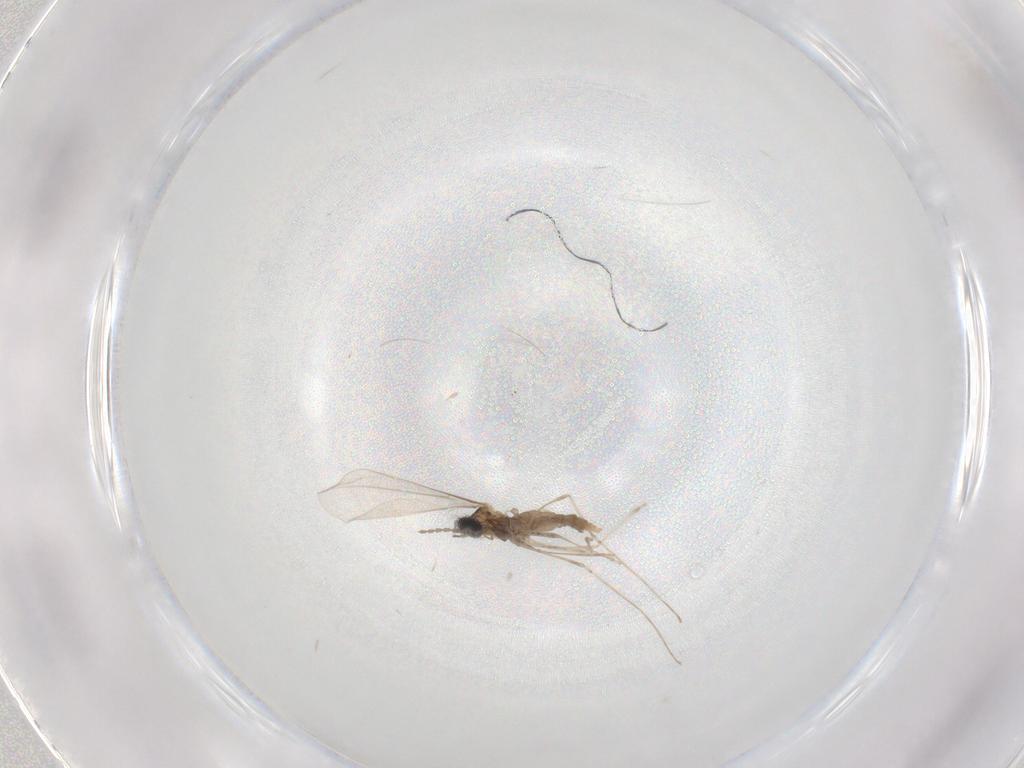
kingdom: Animalia
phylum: Arthropoda
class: Insecta
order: Diptera
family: Cecidomyiidae
